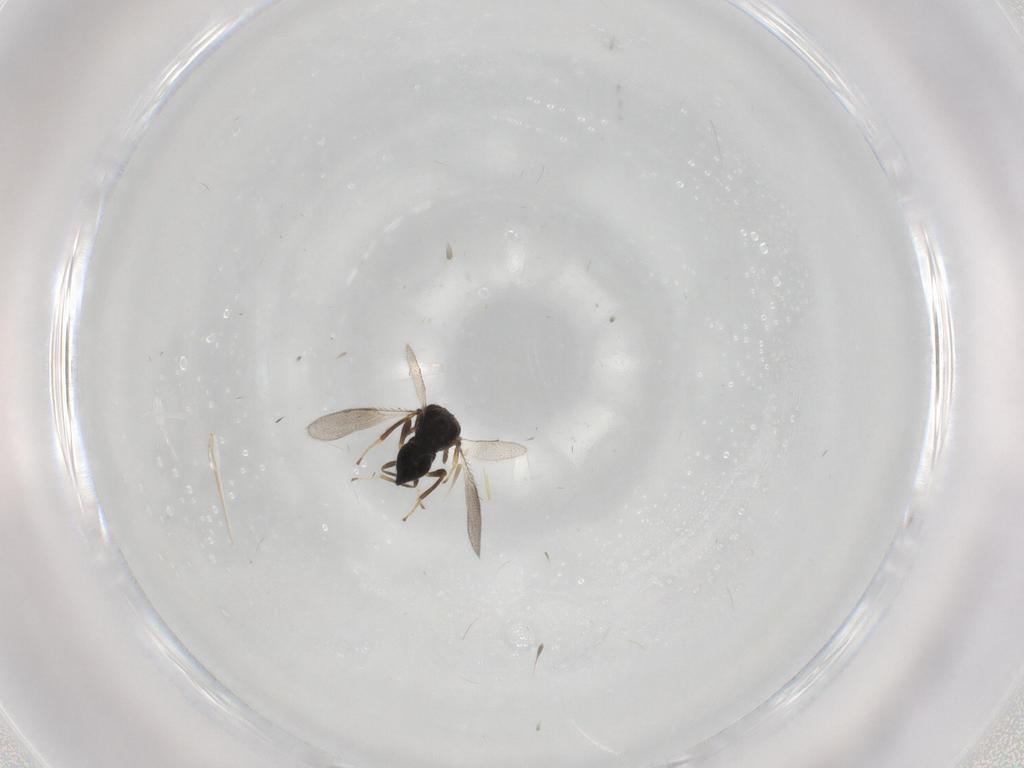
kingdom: Animalia
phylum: Arthropoda
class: Insecta
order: Hymenoptera
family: Pteromalidae
